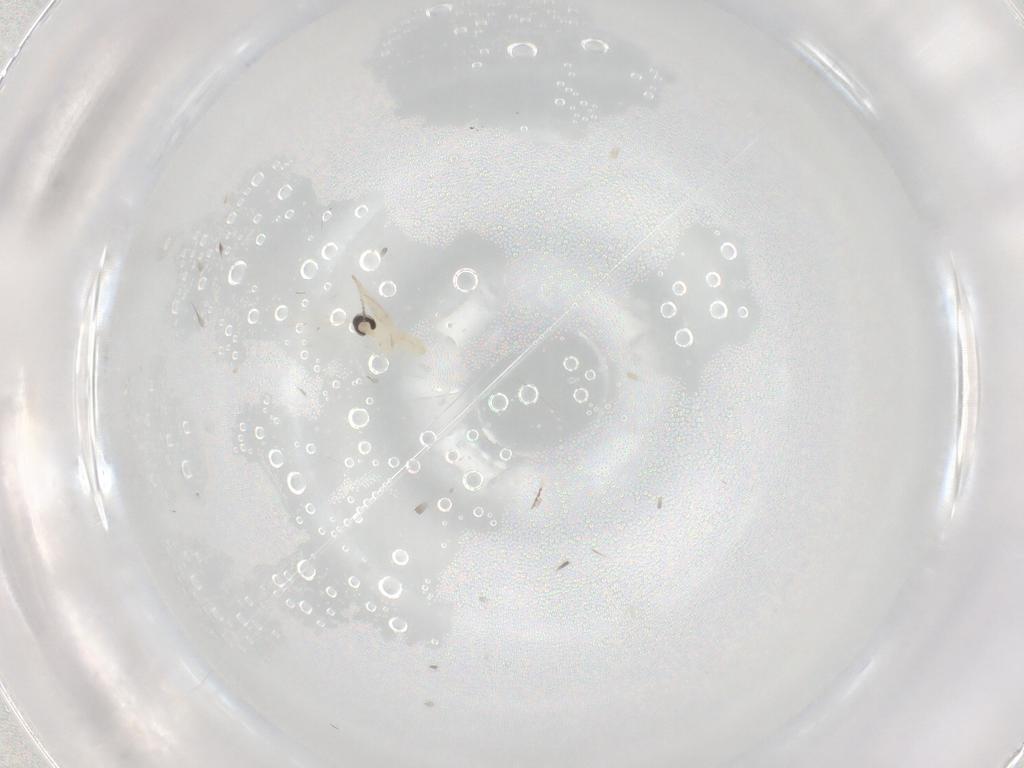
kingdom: Animalia
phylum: Arthropoda
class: Insecta
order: Diptera
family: Cecidomyiidae
